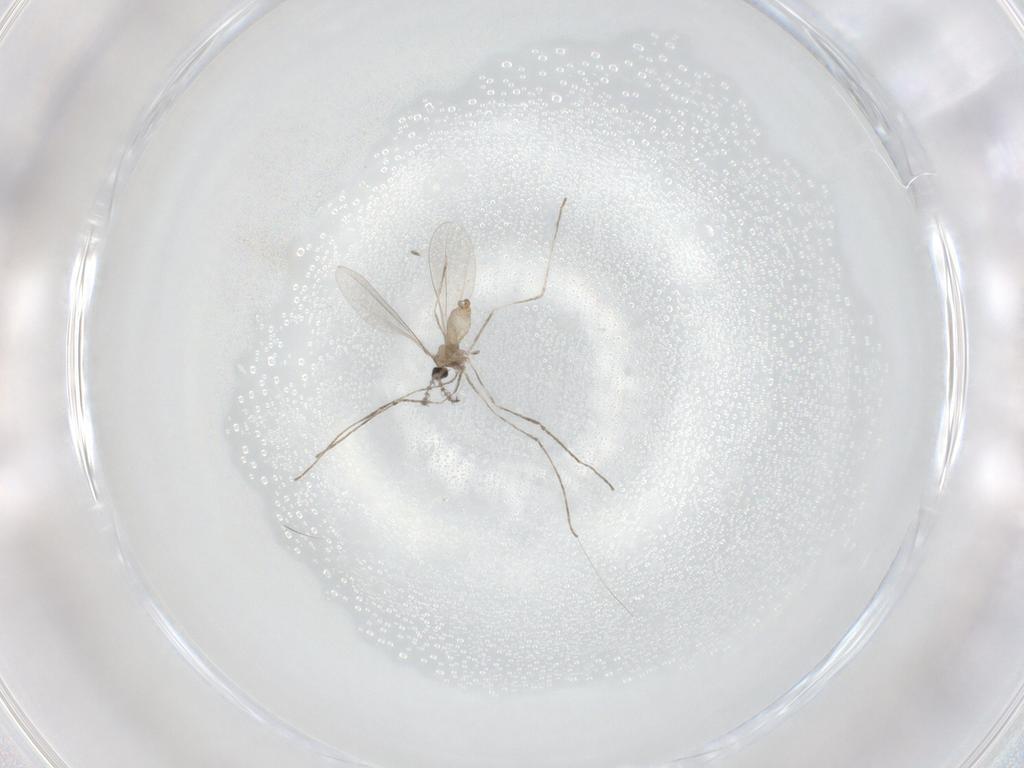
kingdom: Animalia
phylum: Arthropoda
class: Insecta
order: Diptera
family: Cecidomyiidae
